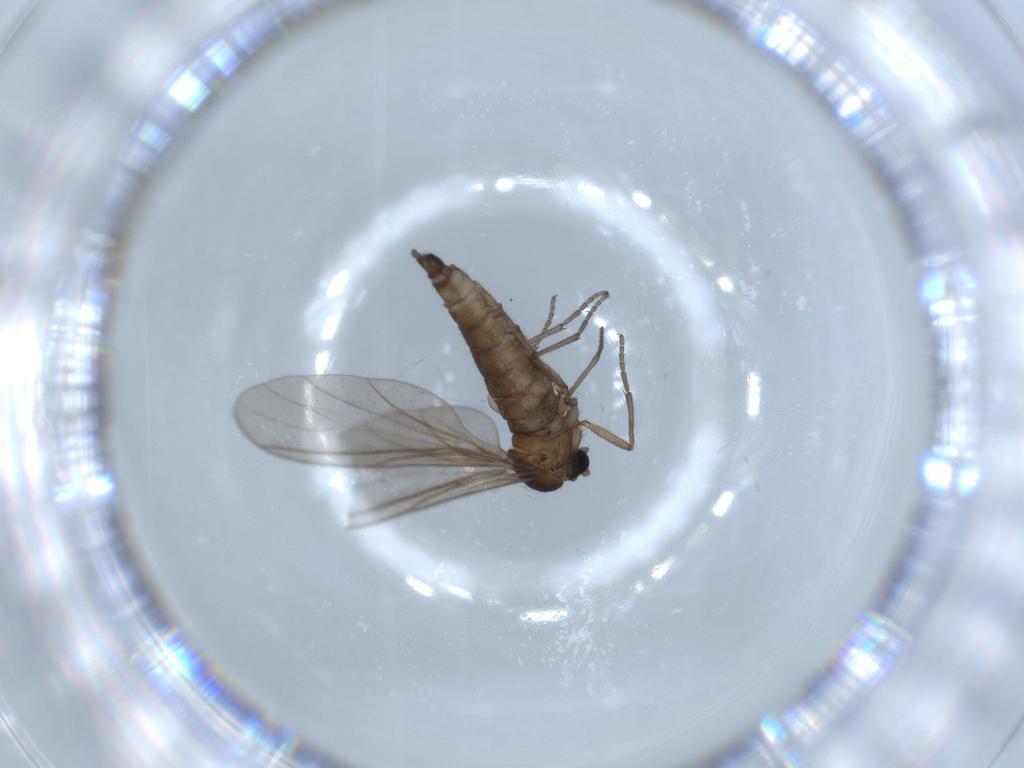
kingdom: Animalia
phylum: Arthropoda
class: Insecta
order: Diptera
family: Sciaridae
